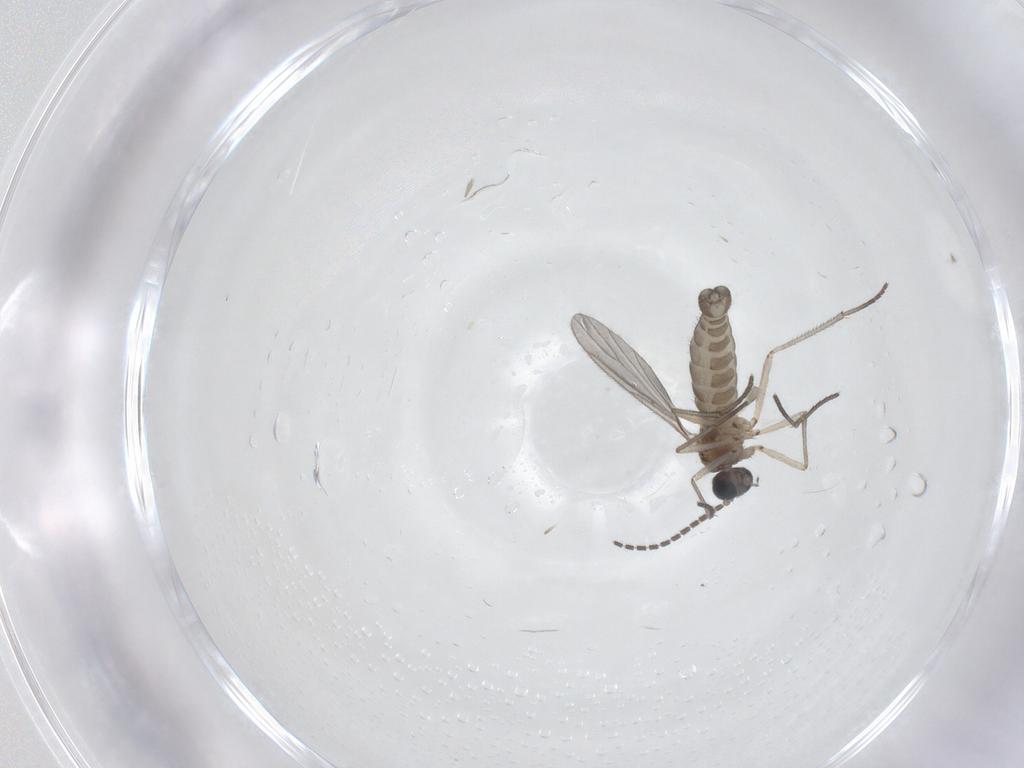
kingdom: Animalia
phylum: Arthropoda
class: Insecta
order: Diptera
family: Sciaridae
